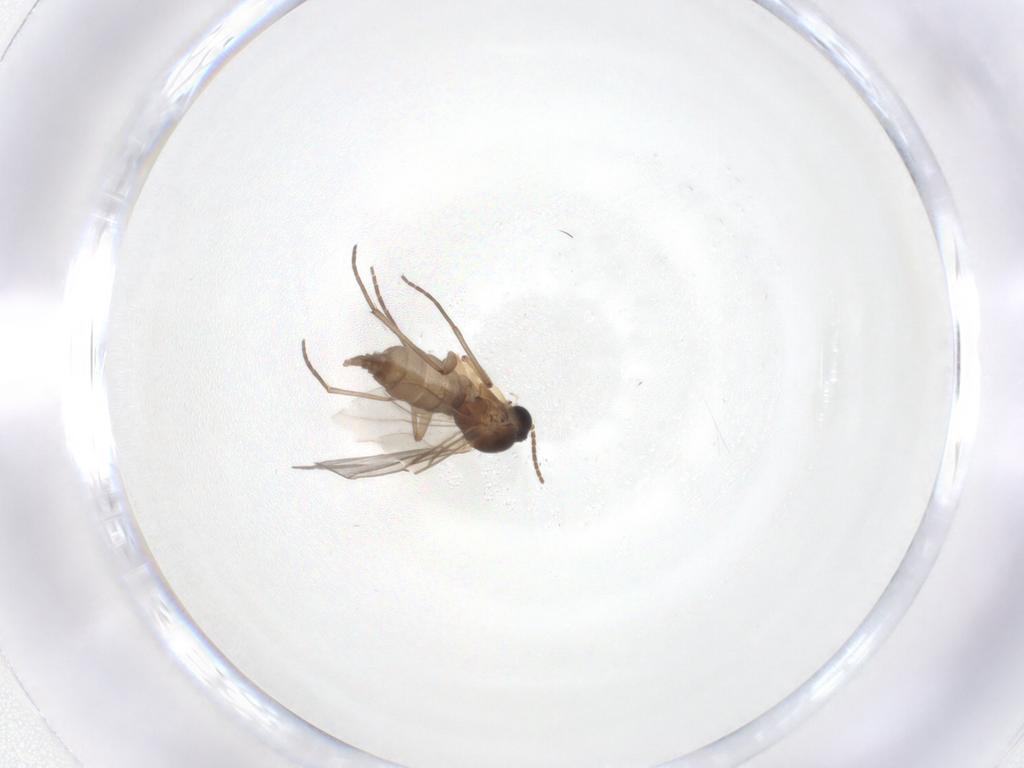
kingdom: Animalia
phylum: Arthropoda
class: Insecta
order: Diptera
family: Sciaridae
